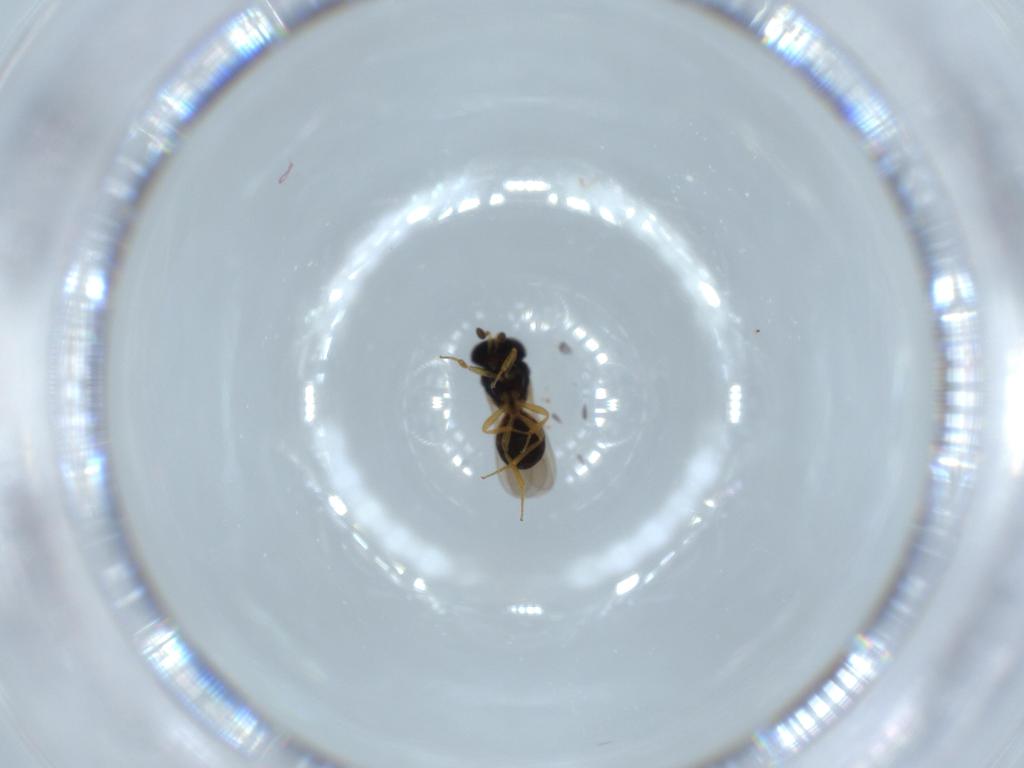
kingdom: Animalia
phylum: Arthropoda
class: Insecta
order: Hymenoptera
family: Scelionidae
